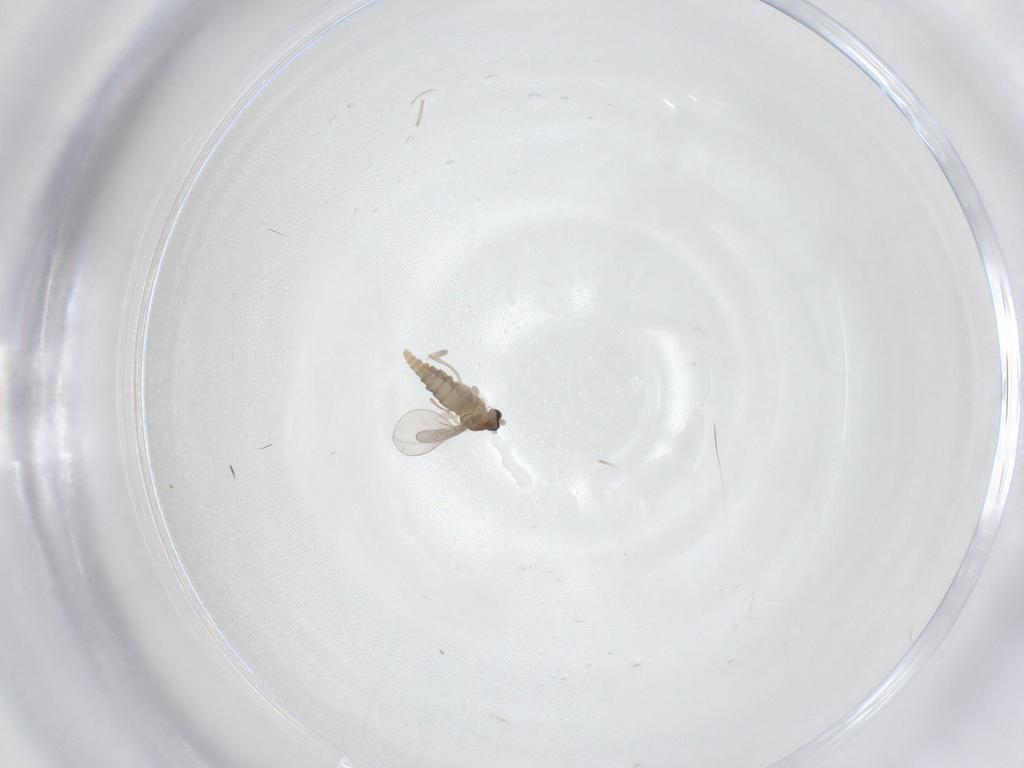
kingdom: Animalia
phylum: Arthropoda
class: Insecta
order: Diptera
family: Cecidomyiidae
